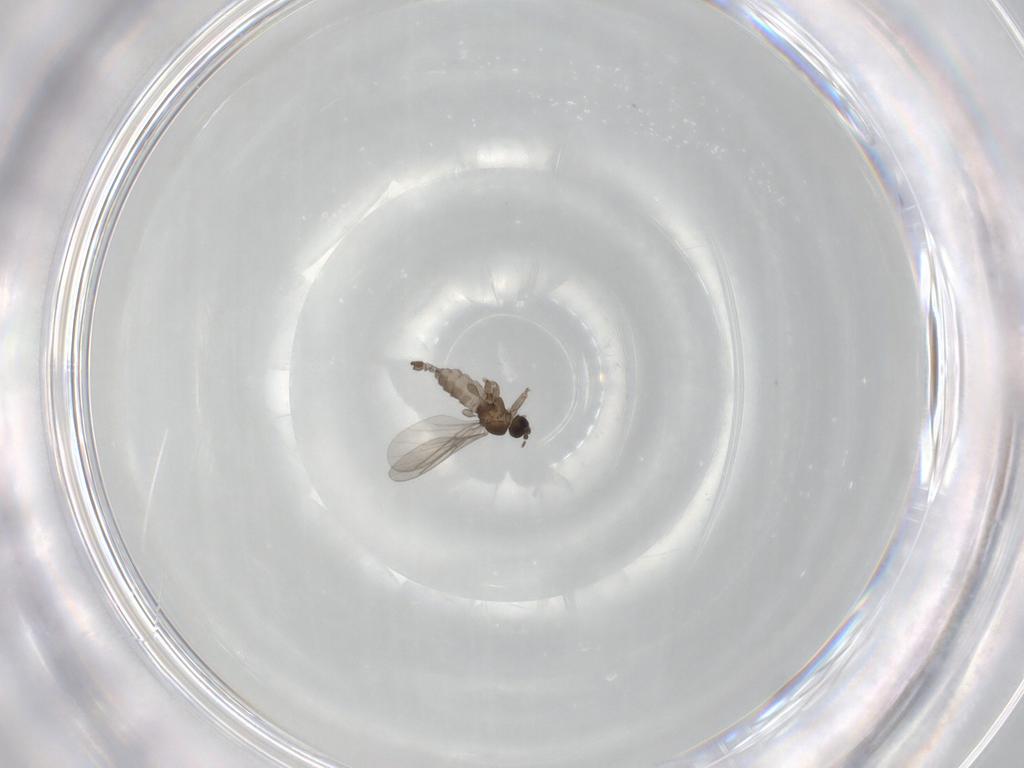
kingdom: Animalia
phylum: Arthropoda
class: Insecta
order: Diptera
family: Sciaridae
